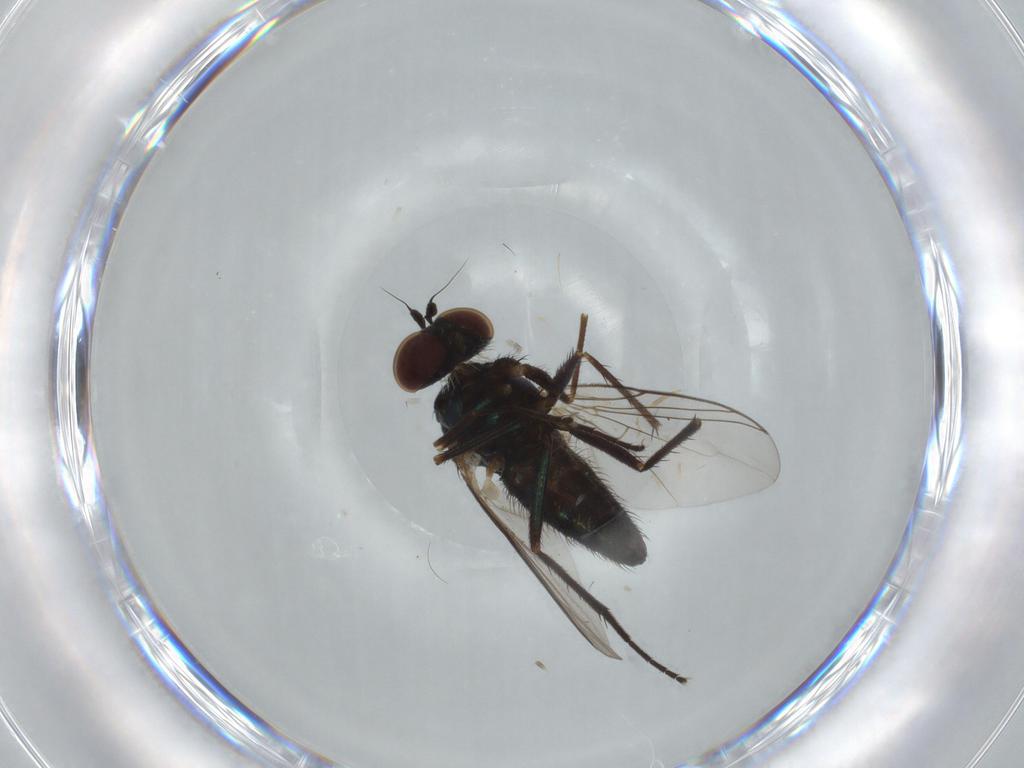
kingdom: Animalia
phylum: Arthropoda
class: Insecta
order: Diptera
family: Dolichopodidae
